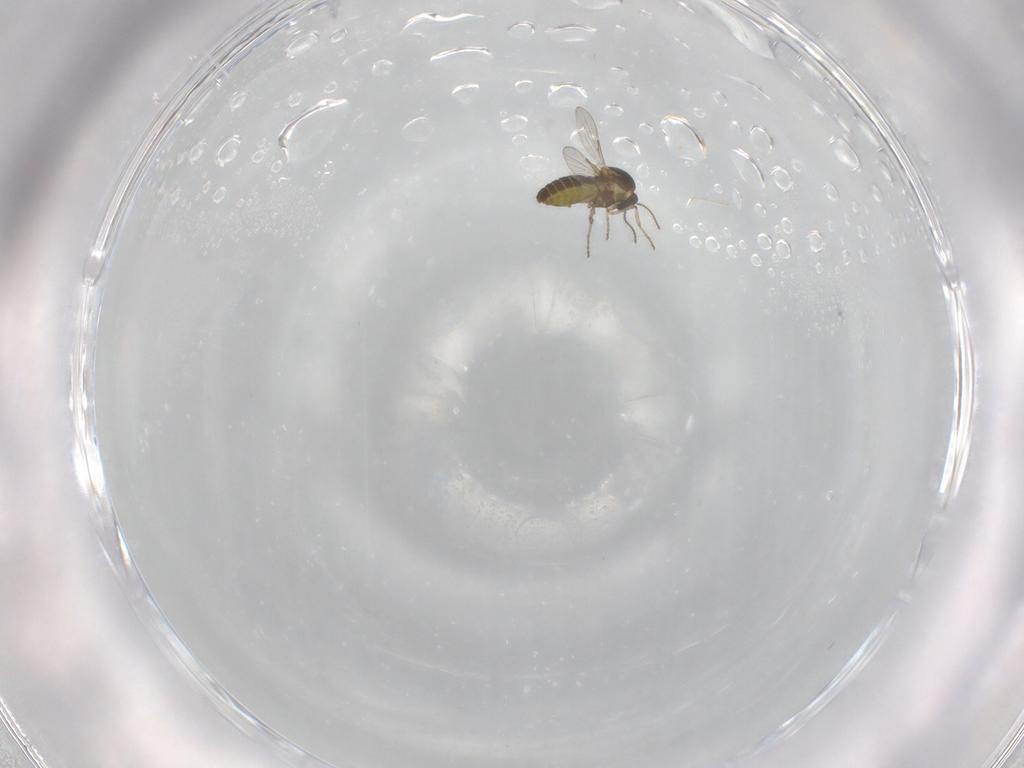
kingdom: Animalia
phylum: Arthropoda
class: Insecta
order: Diptera
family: Ceratopogonidae
